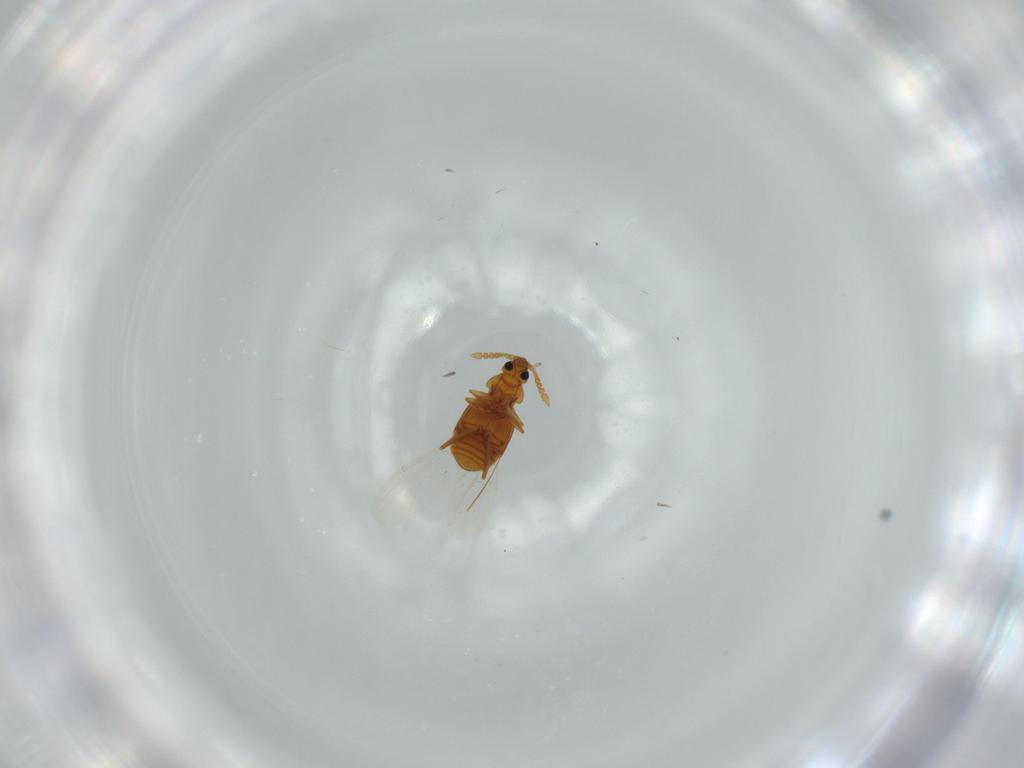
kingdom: Animalia
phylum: Arthropoda
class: Insecta
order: Coleoptera
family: Staphylinidae
